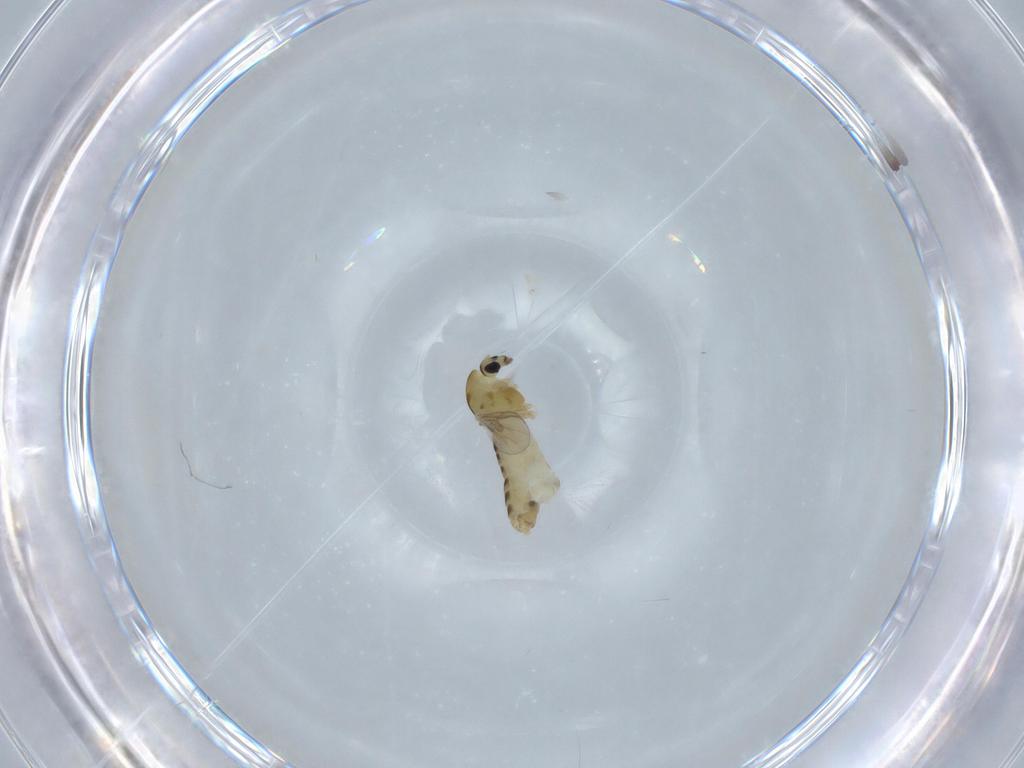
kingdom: Animalia
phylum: Arthropoda
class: Insecta
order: Diptera
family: Chironomidae
